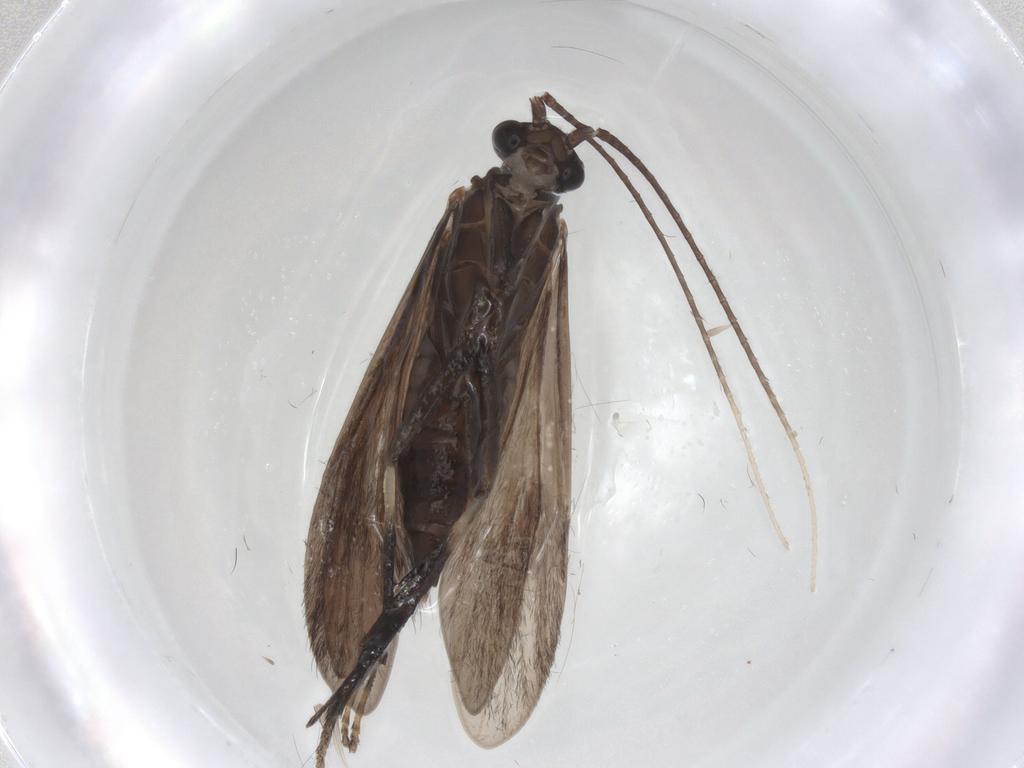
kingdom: Animalia
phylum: Arthropoda
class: Insecta
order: Trichoptera
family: Xiphocentronidae
